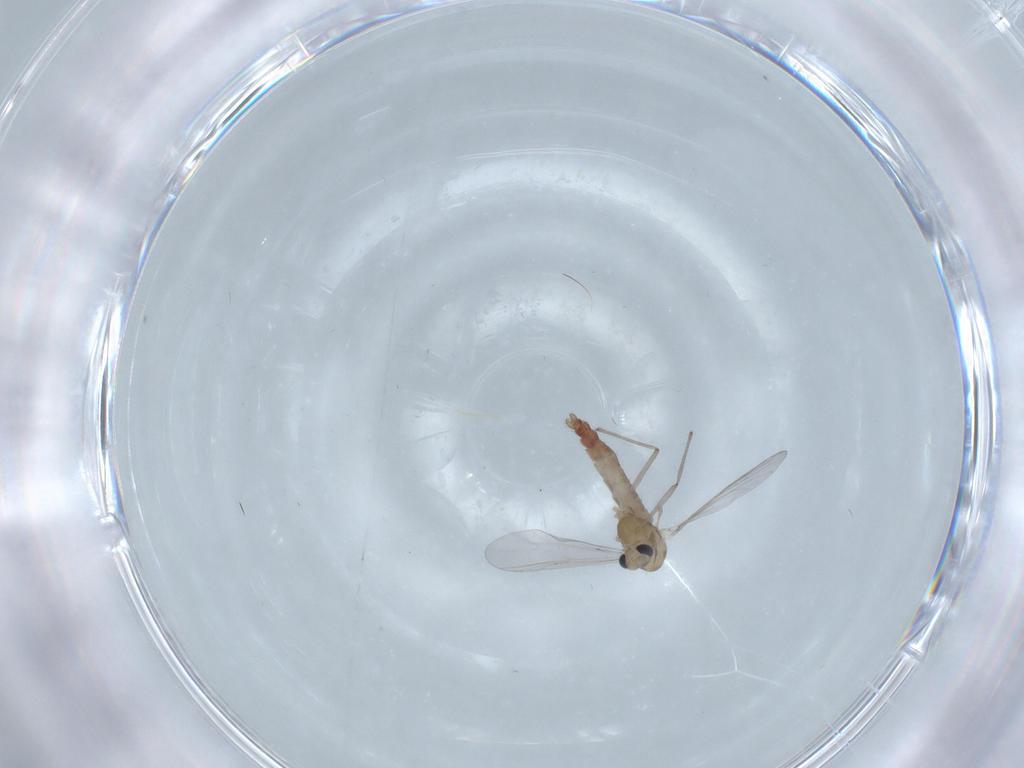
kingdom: Animalia
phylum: Arthropoda
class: Insecta
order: Diptera
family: Chironomidae
